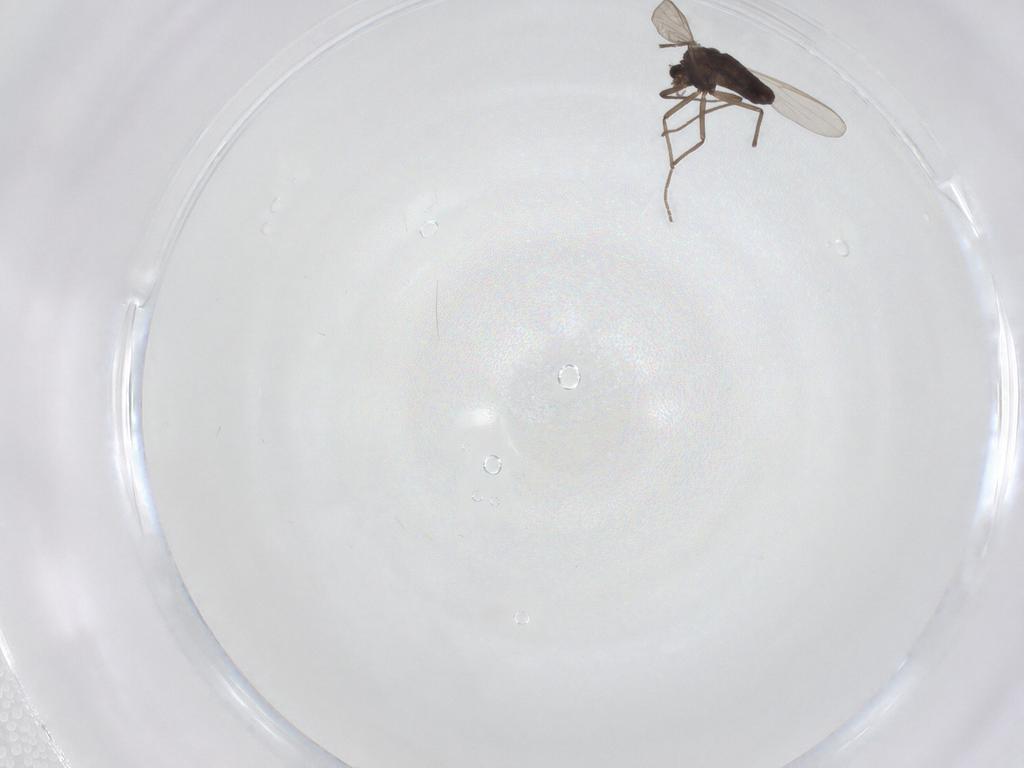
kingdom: Animalia
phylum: Arthropoda
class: Insecta
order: Diptera
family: Chironomidae
